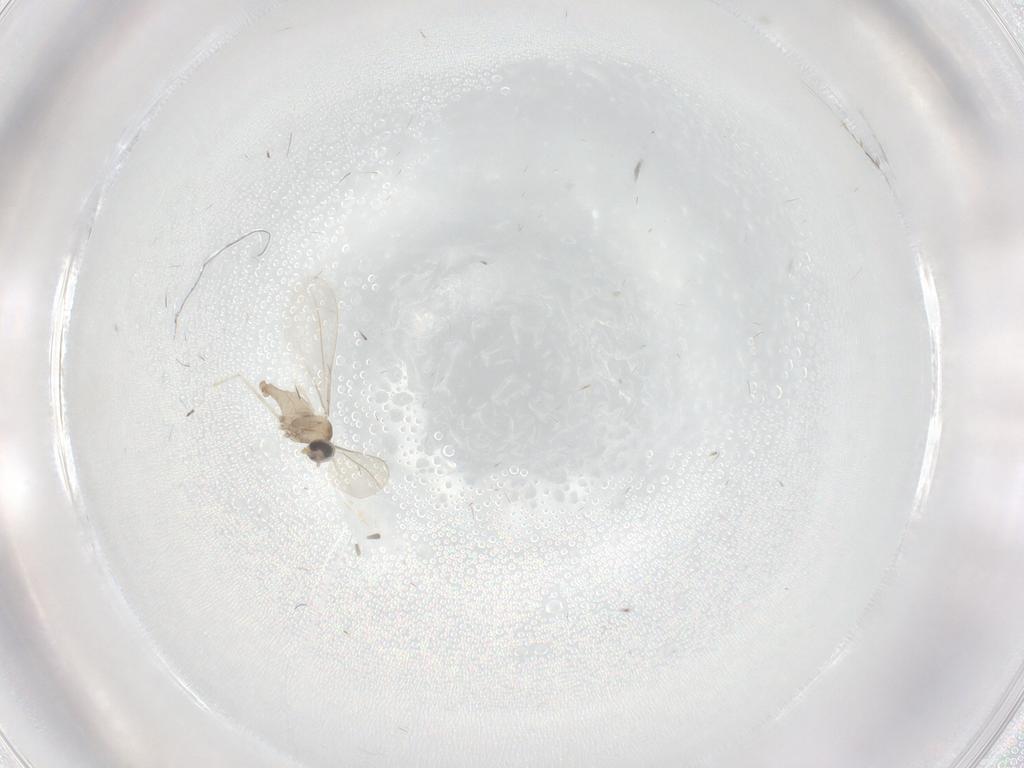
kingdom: Animalia
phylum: Arthropoda
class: Insecta
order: Diptera
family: Cecidomyiidae
